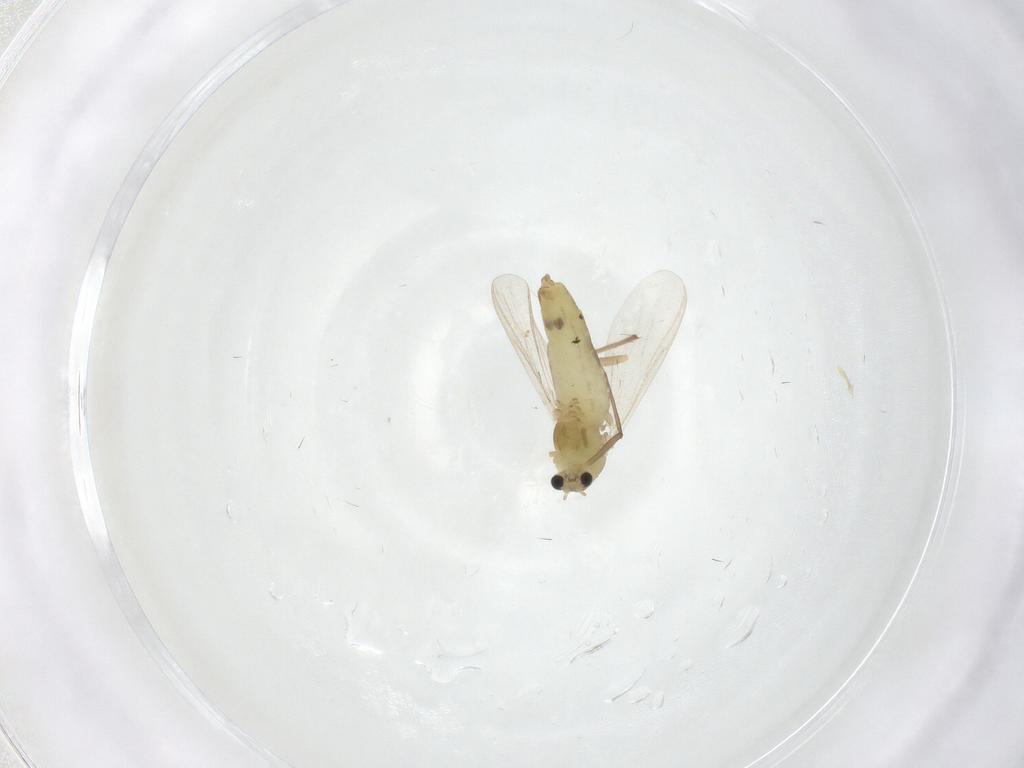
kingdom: Animalia
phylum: Arthropoda
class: Insecta
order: Diptera
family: Chironomidae
